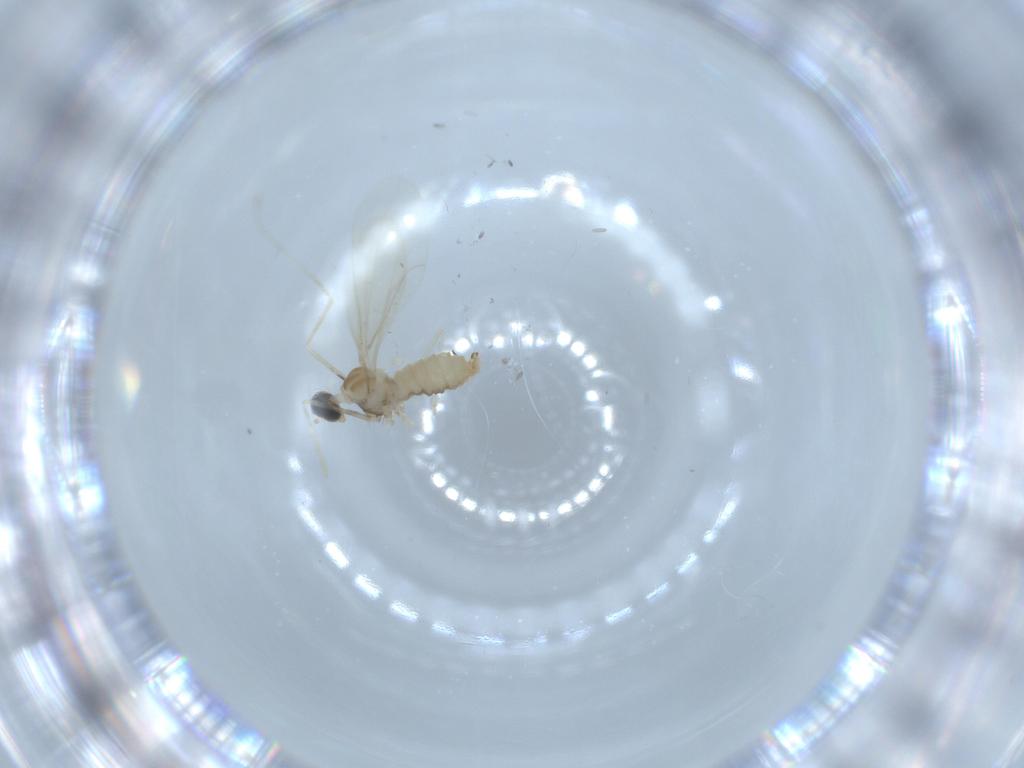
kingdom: Animalia
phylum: Arthropoda
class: Insecta
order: Diptera
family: Cecidomyiidae
